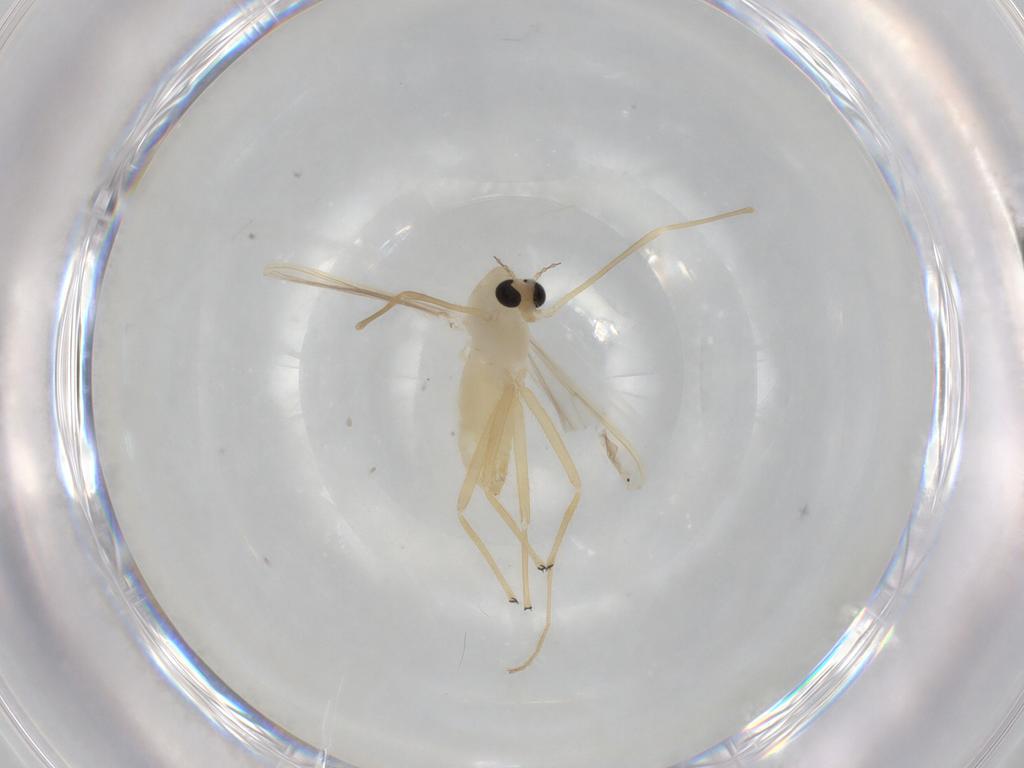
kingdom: Animalia
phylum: Arthropoda
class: Insecta
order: Diptera
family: Chironomidae
